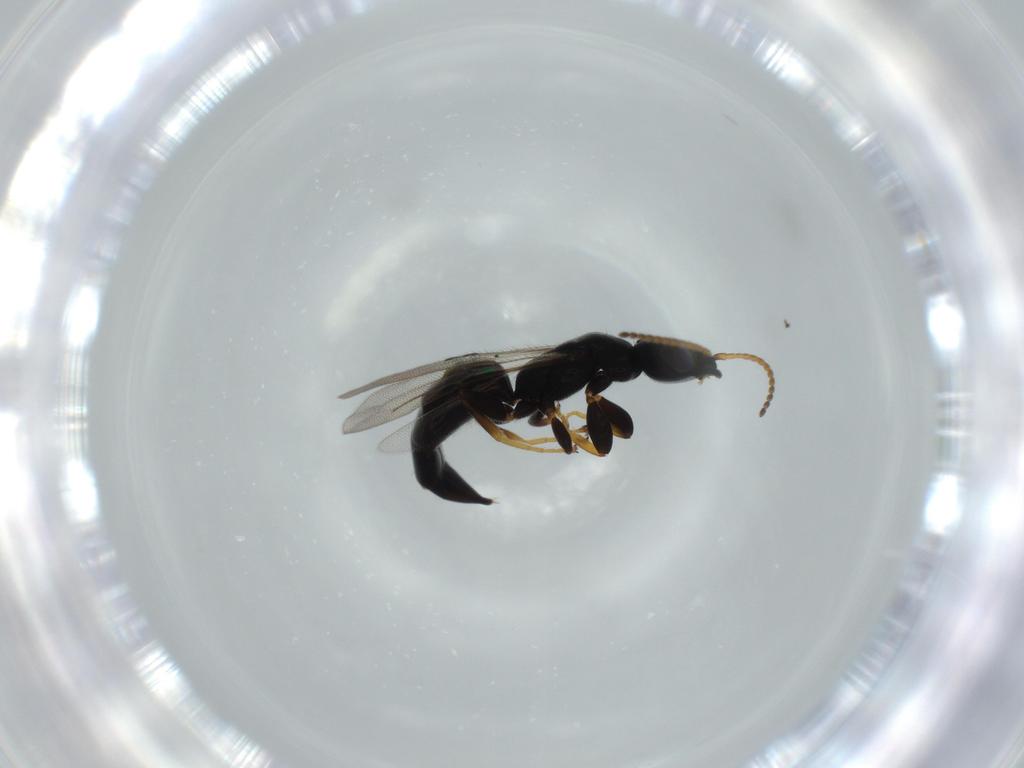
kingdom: Animalia
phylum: Arthropoda
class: Insecta
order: Hymenoptera
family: Bethylidae
